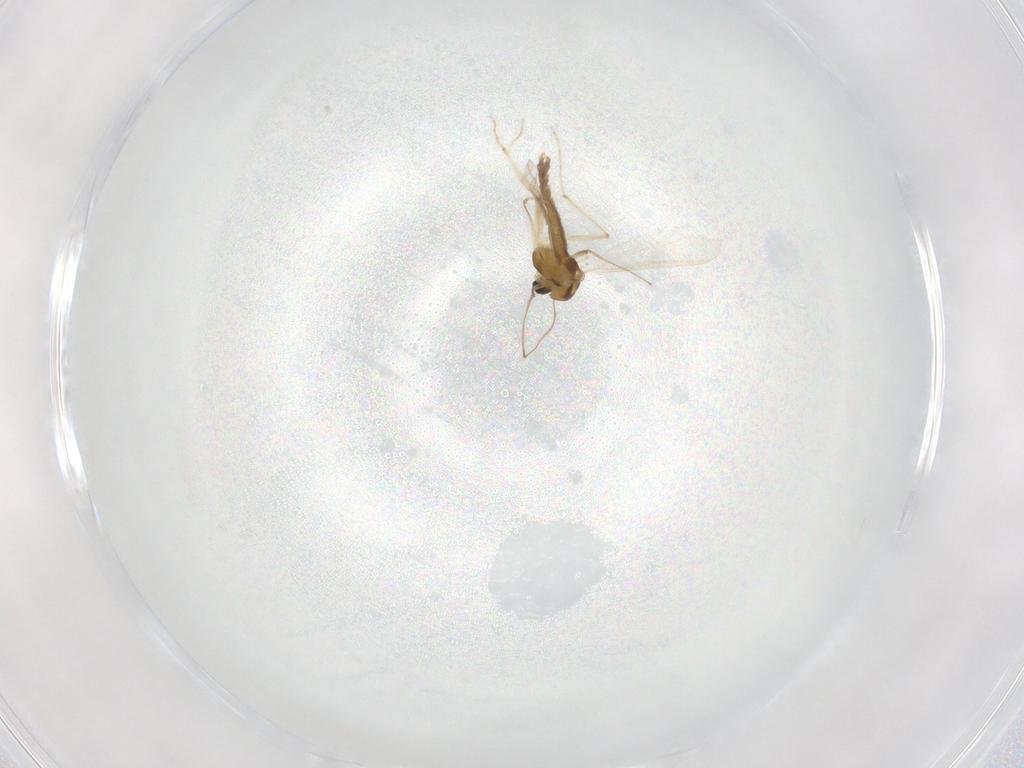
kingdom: Animalia
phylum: Arthropoda
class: Insecta
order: Diptera
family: Chironomidae
